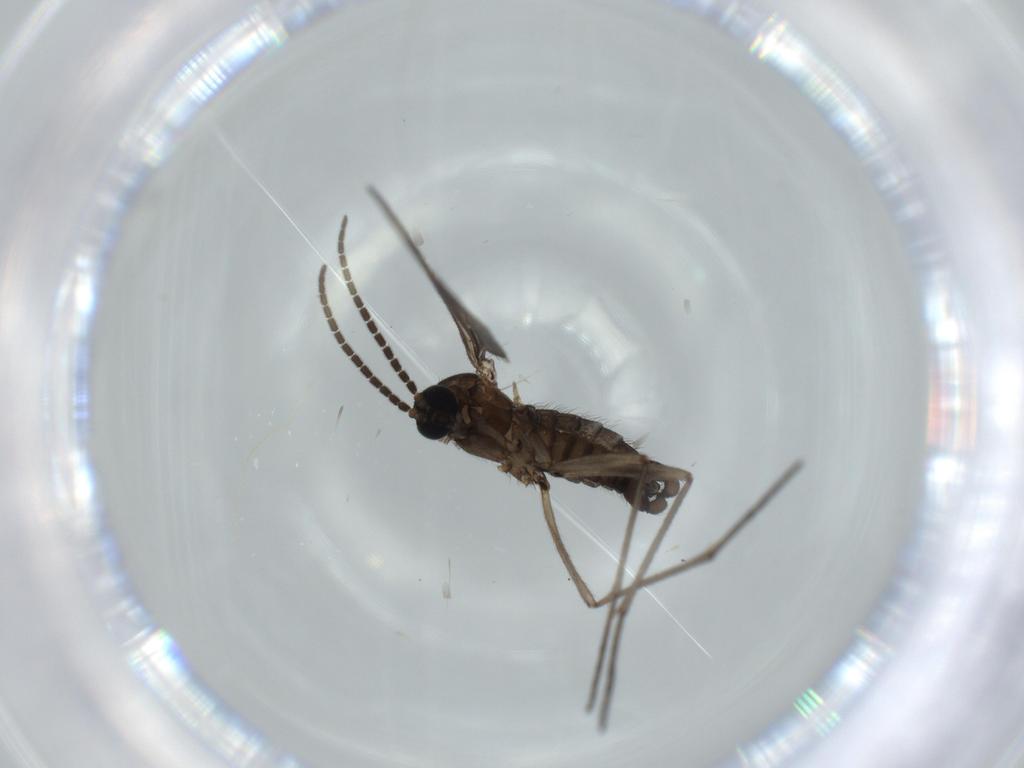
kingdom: Animalia
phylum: Arthropoda
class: Insecta
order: Diptera
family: Sciaridae
